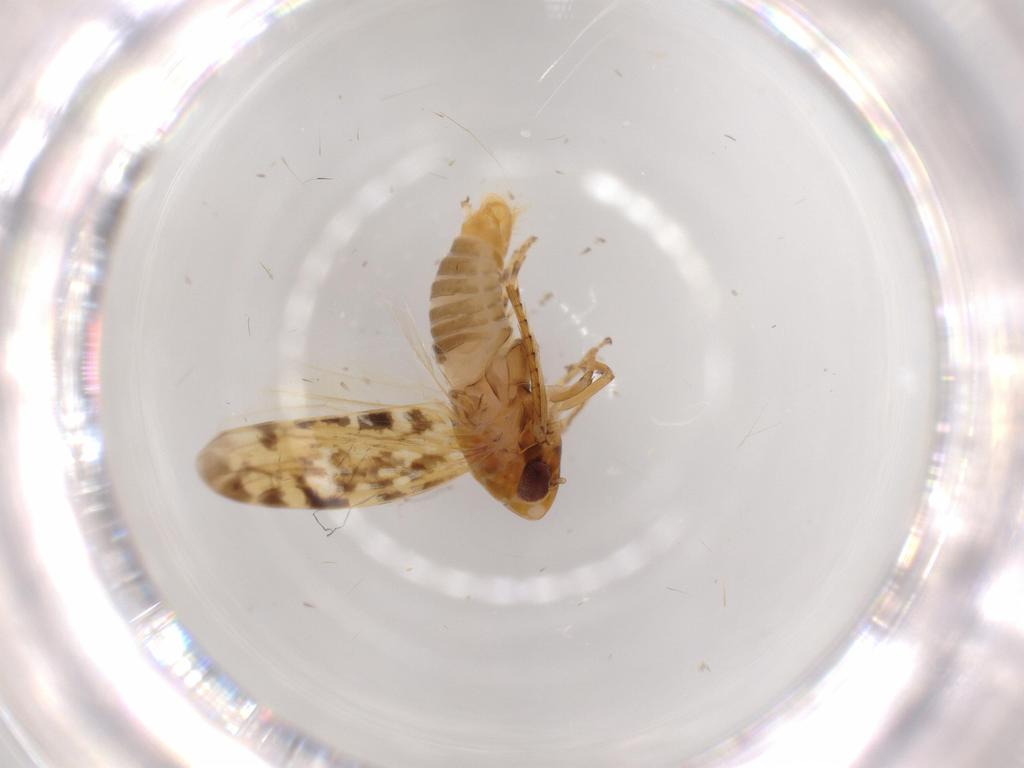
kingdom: Animalia
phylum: Arthropoda
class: Insecta
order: Hemiptera
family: Cicadellidae
